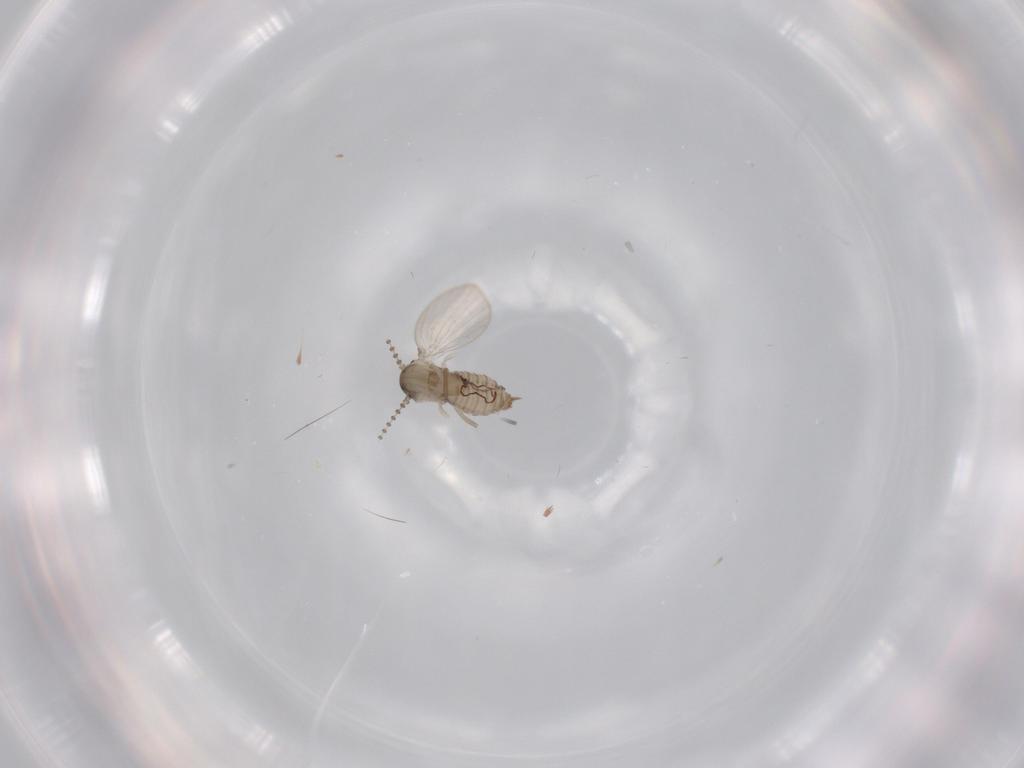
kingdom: Animalia
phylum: Arthropoda
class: Insecta
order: Diptera
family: Psychodidae
